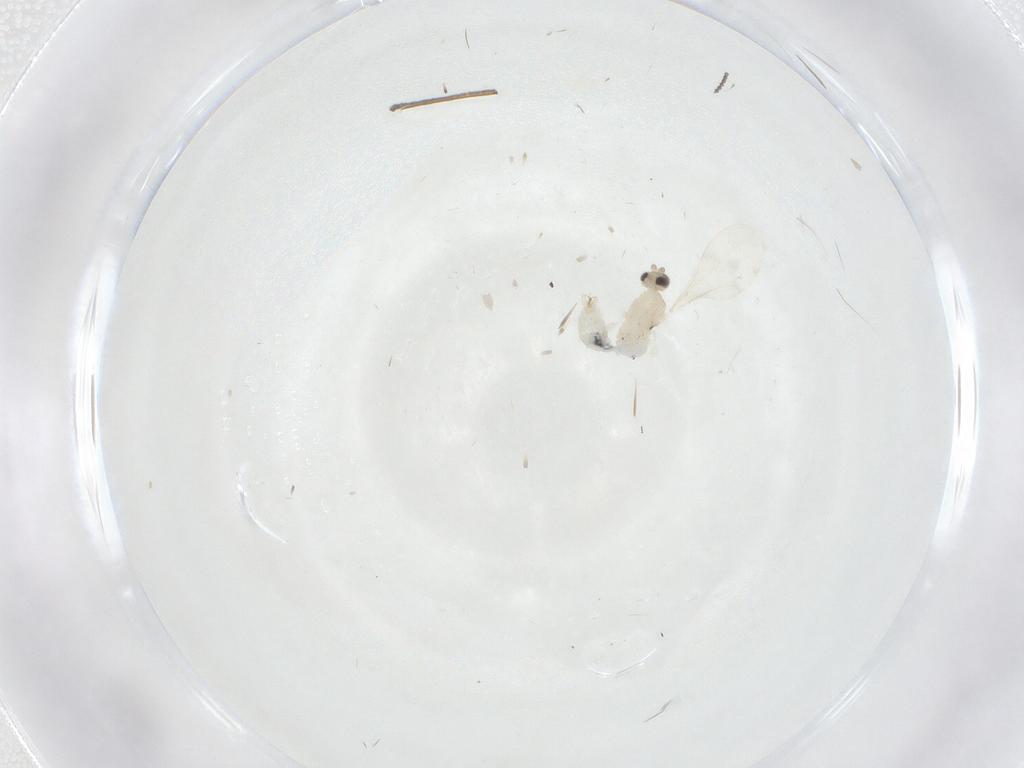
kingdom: Animalia
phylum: Arthropoda
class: Insecta
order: Diptera
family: Cecidomyiidae
